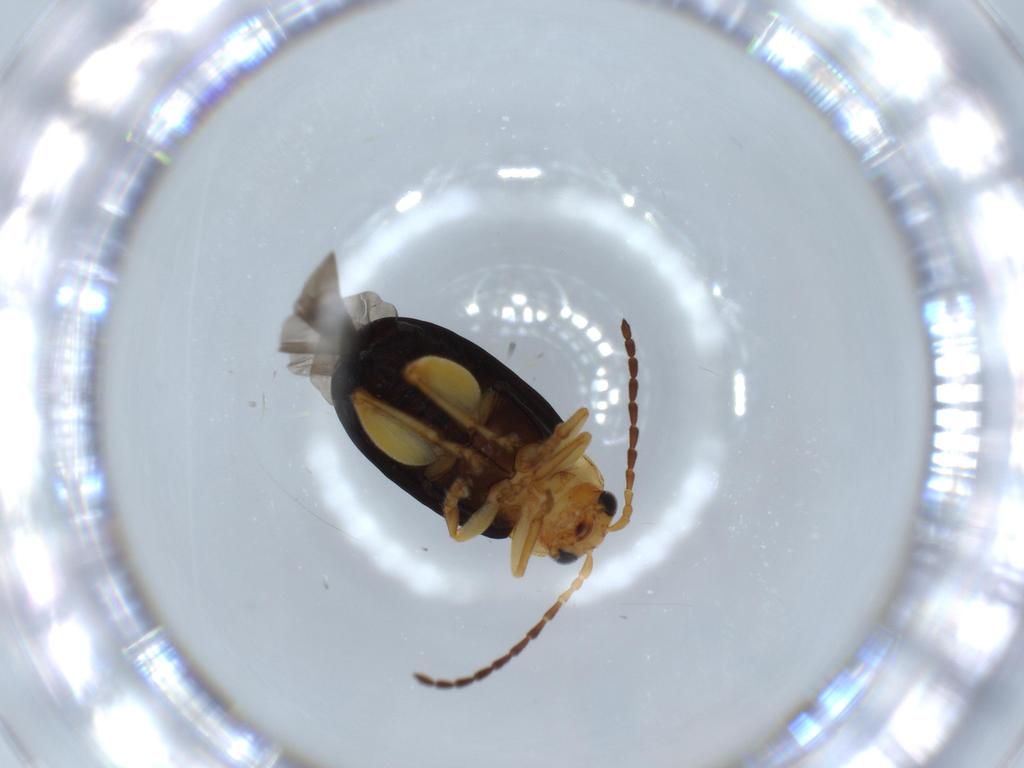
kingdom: Animalia
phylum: Arthropoda
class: Insecta
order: Coleoptera
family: Chrysomelidae
